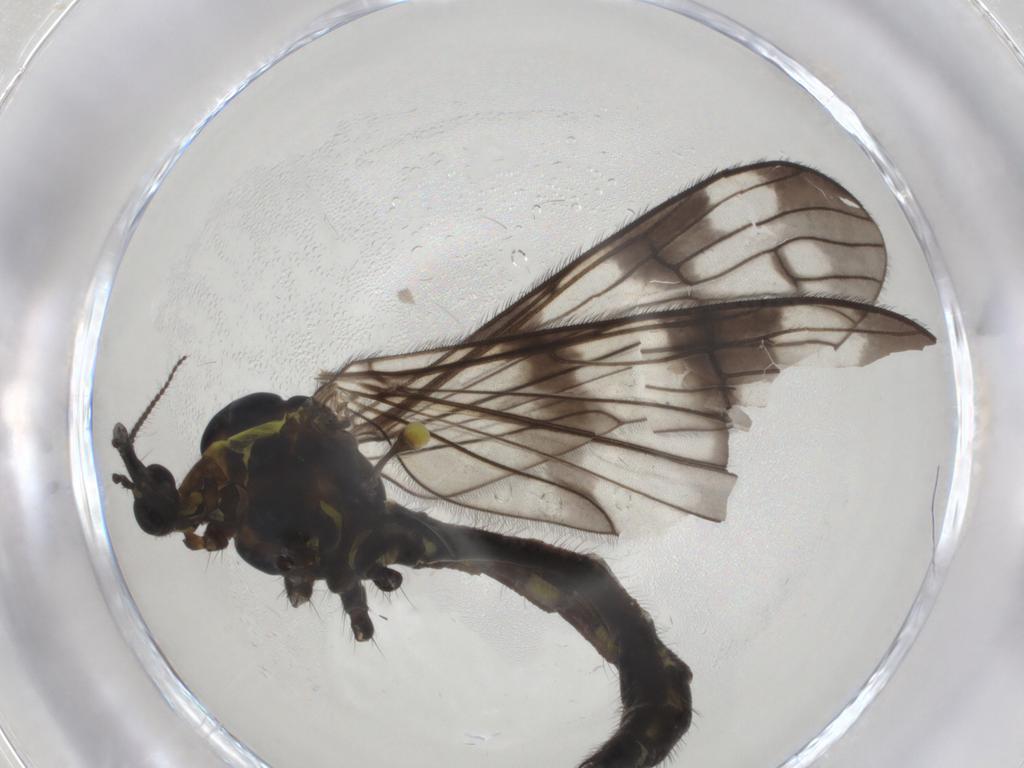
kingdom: Animalia
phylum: Arthropoda
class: Insecta
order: Diptera
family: Limoniidae
